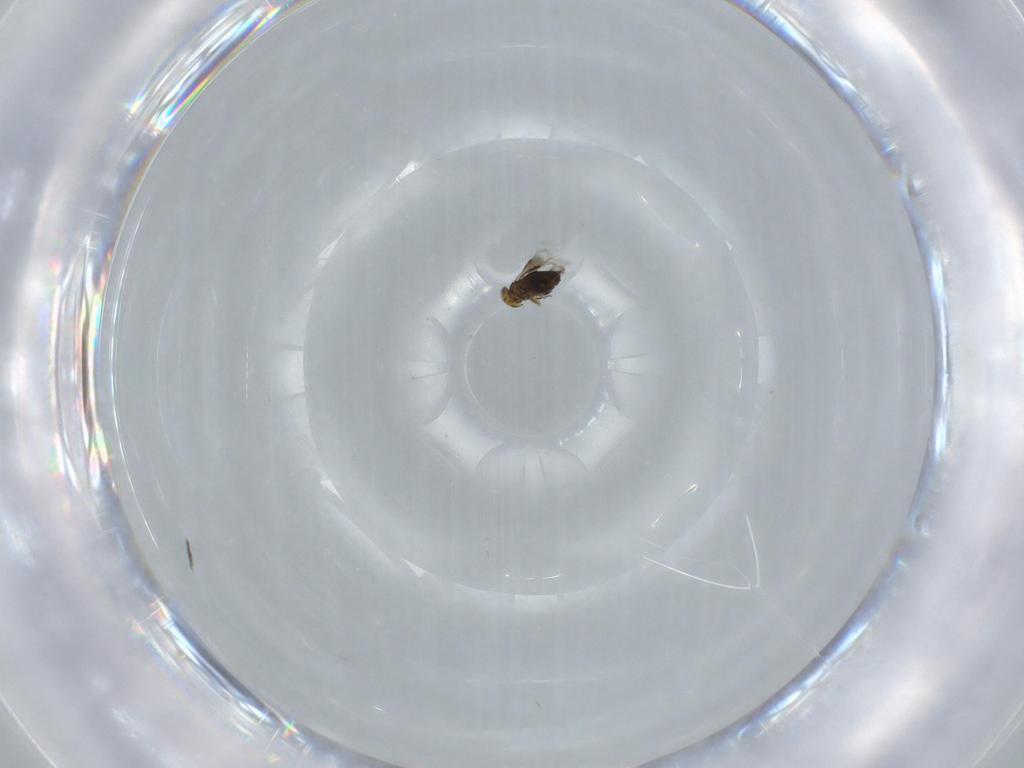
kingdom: Animalia
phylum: Arthropoda
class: Insecta
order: Hymenoptera
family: Signiphoridae
